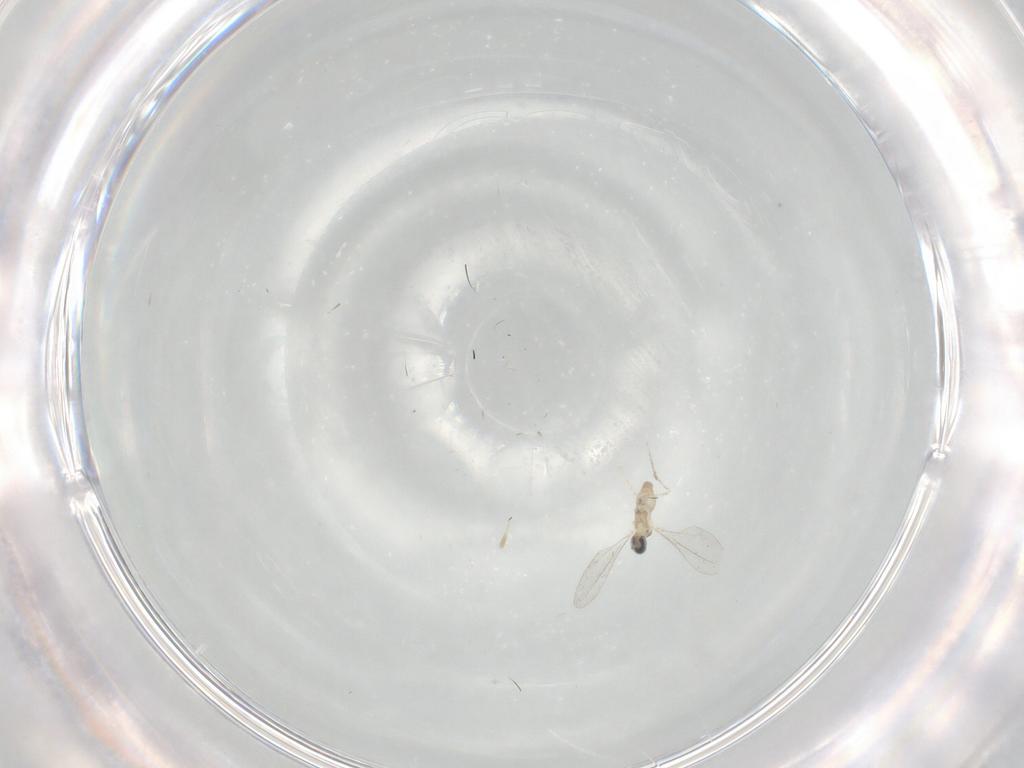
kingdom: Animalia
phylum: Arthropoda
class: Insecta
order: Diptera
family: Cecidomyiidae
